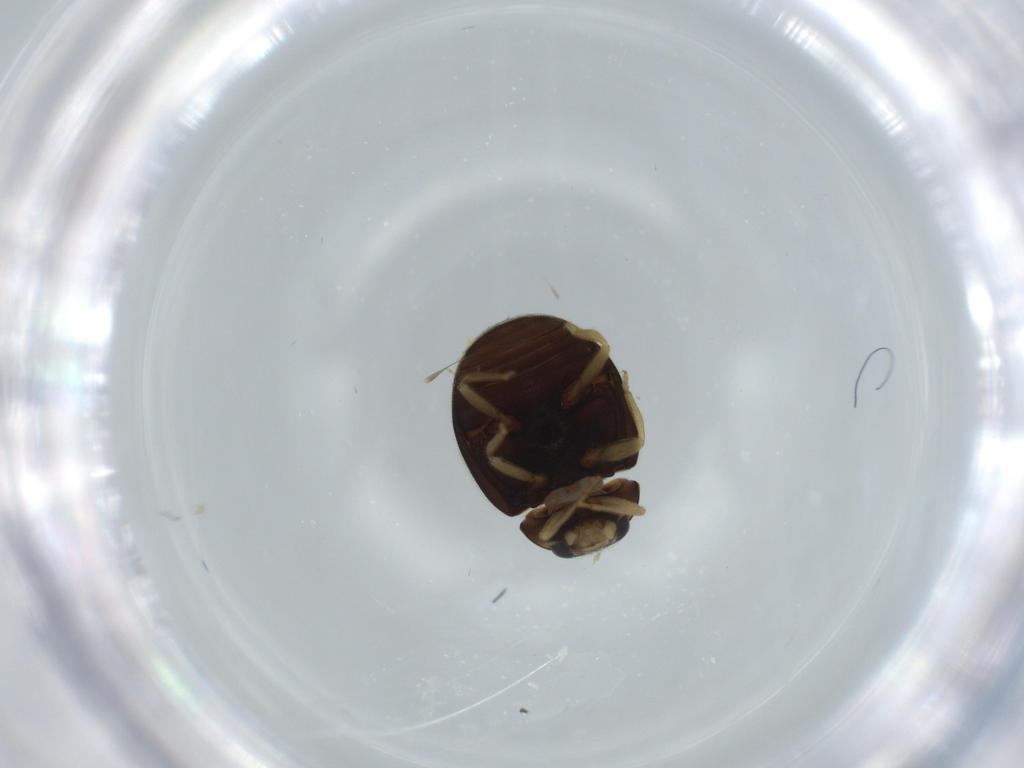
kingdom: Animalia
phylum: Arthropoda
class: Insecta
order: Coleoptera
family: Coccinellidae
